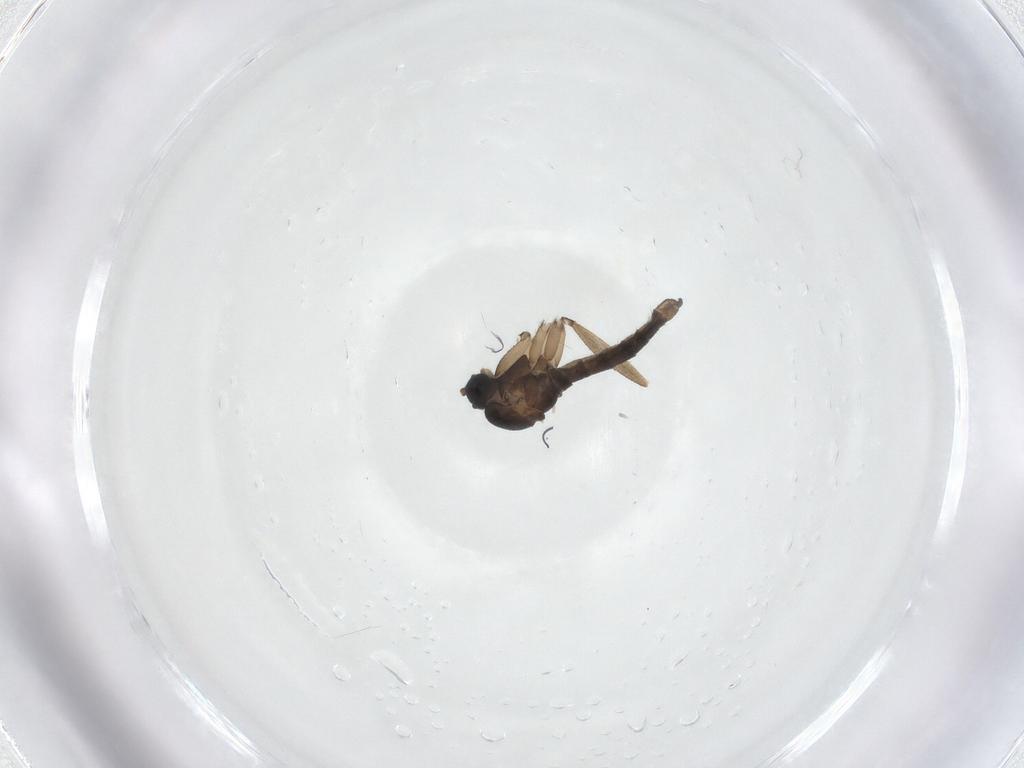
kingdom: Animalia
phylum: Arthropoda
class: Insecta
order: Diptera
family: Sciaridae
